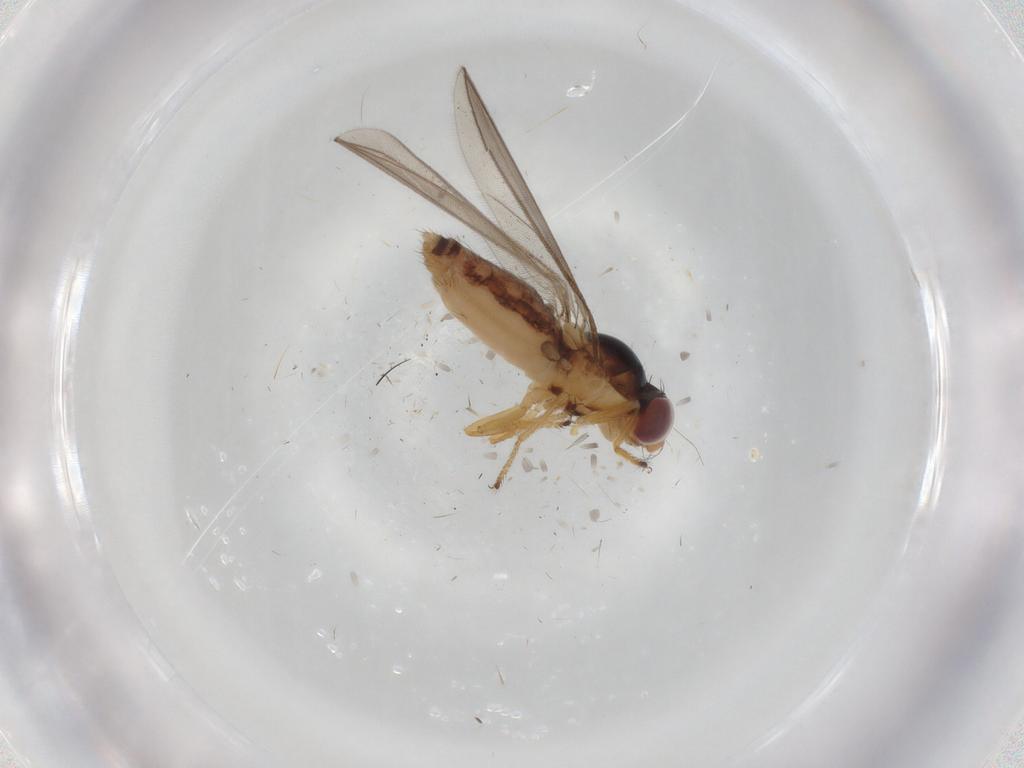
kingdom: Animalia
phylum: Arthropoda
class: Insecta
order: Diptera
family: Asteiidae
